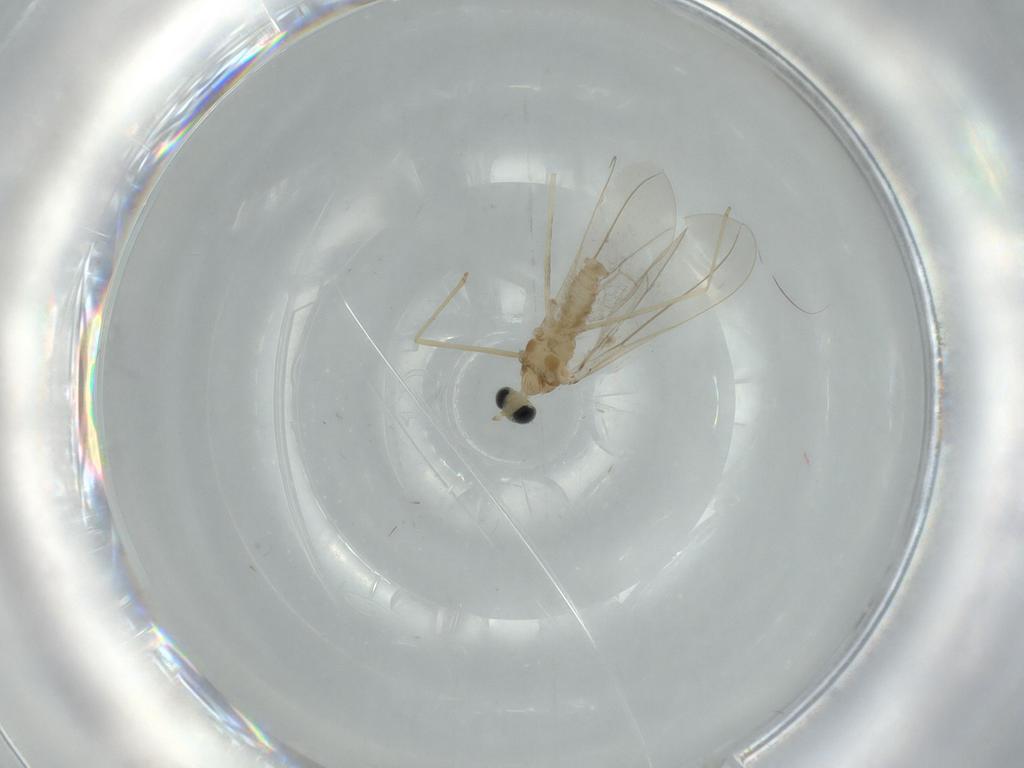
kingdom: Animalia
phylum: Arthropoda
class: Insecta
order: Diptera
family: Cecidomyiidae
